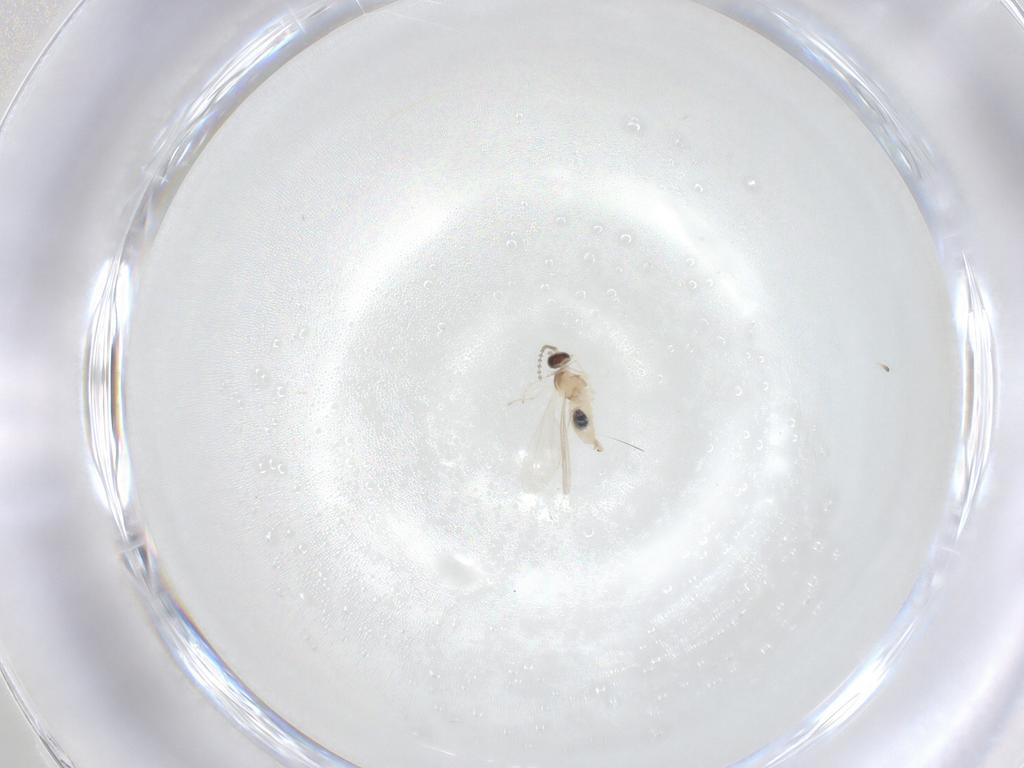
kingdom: Animalia
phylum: Arthropoda
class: Insecta
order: Diptera
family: Cecidomyiidae
